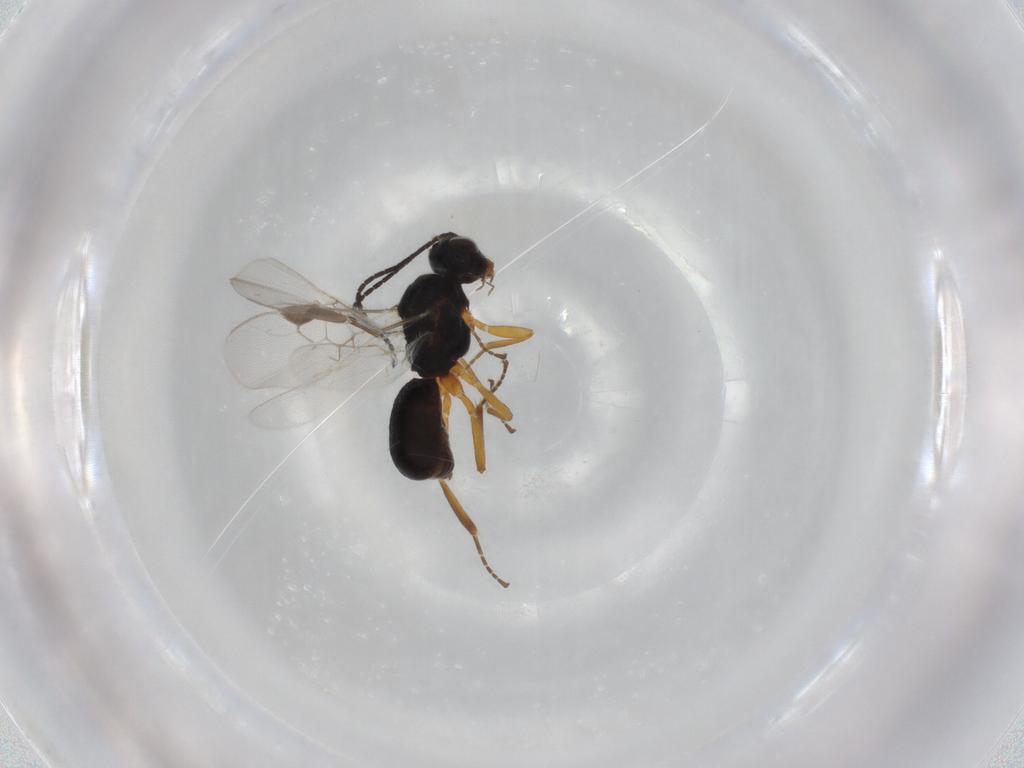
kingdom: Animalia
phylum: Arthropoda
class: Insecta
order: Hymenoptera
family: Braconidae
